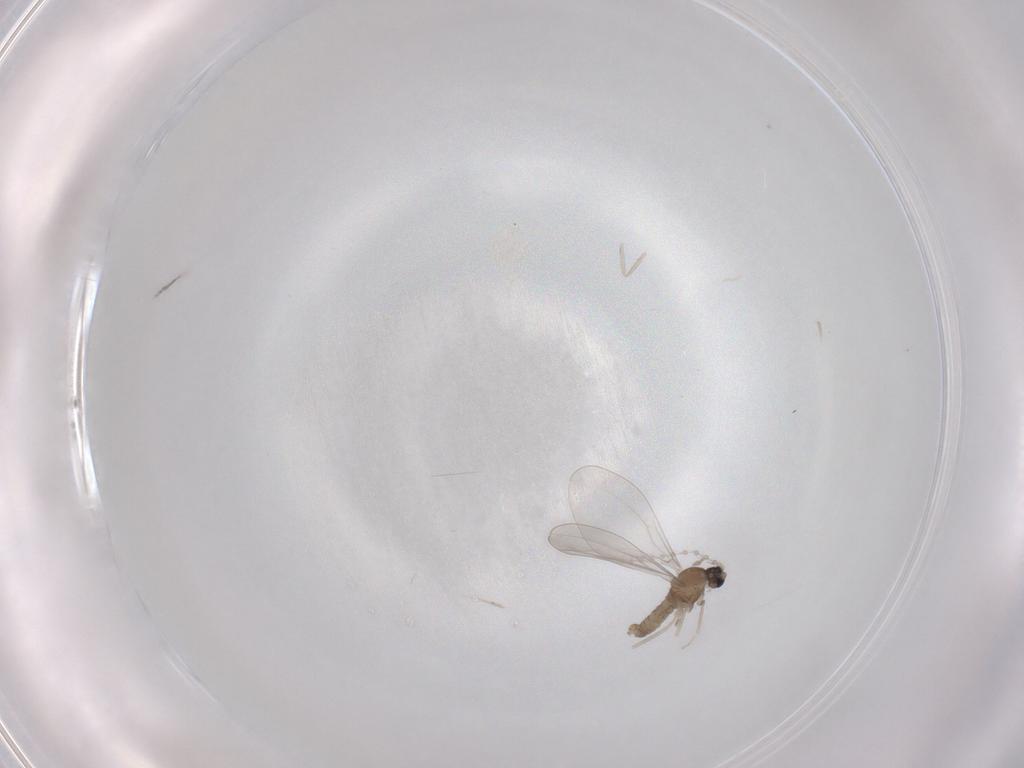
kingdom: Animalia
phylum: Arthropoda
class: Insecta
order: Diptera
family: Chironomidae
